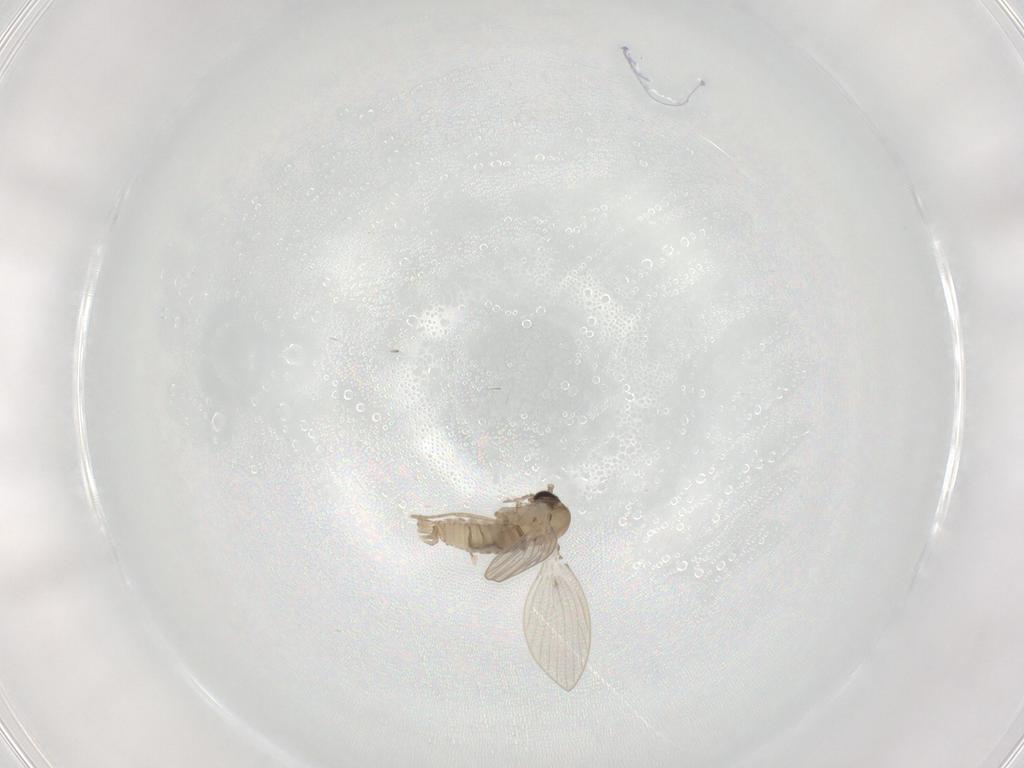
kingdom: Animalia
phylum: Arthropoda
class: Insecta
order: Diptera
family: Psychodidae
